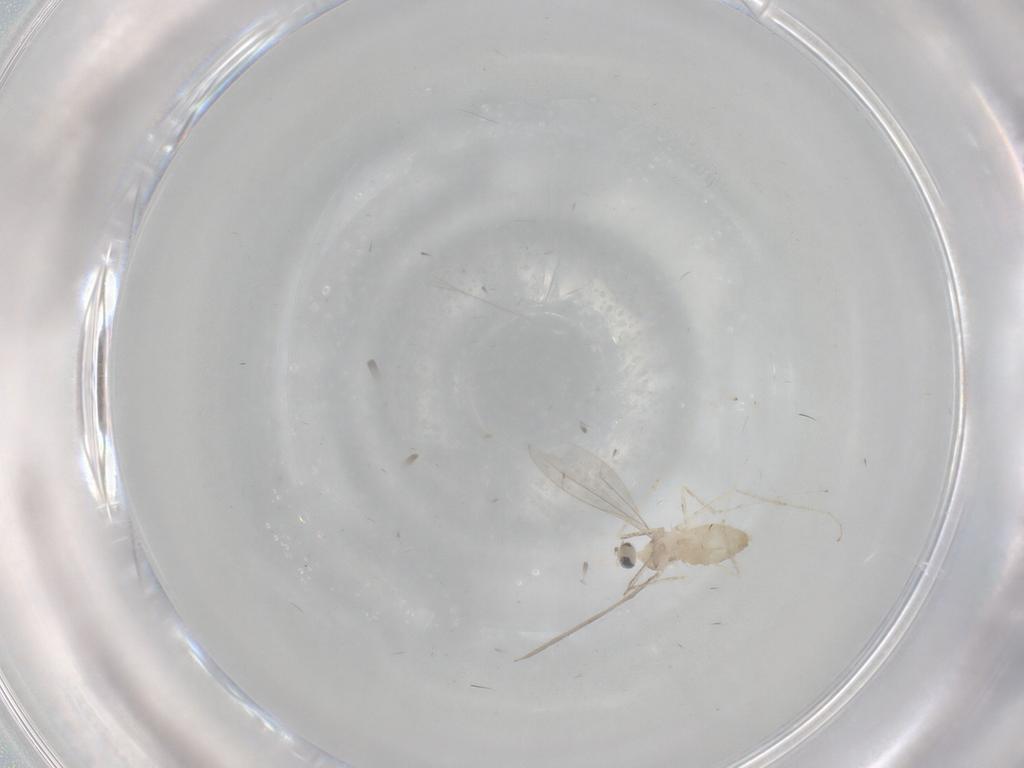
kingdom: Animalia
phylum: Arthropoda
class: Insecta
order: Diptera
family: Cecidomyiidae
